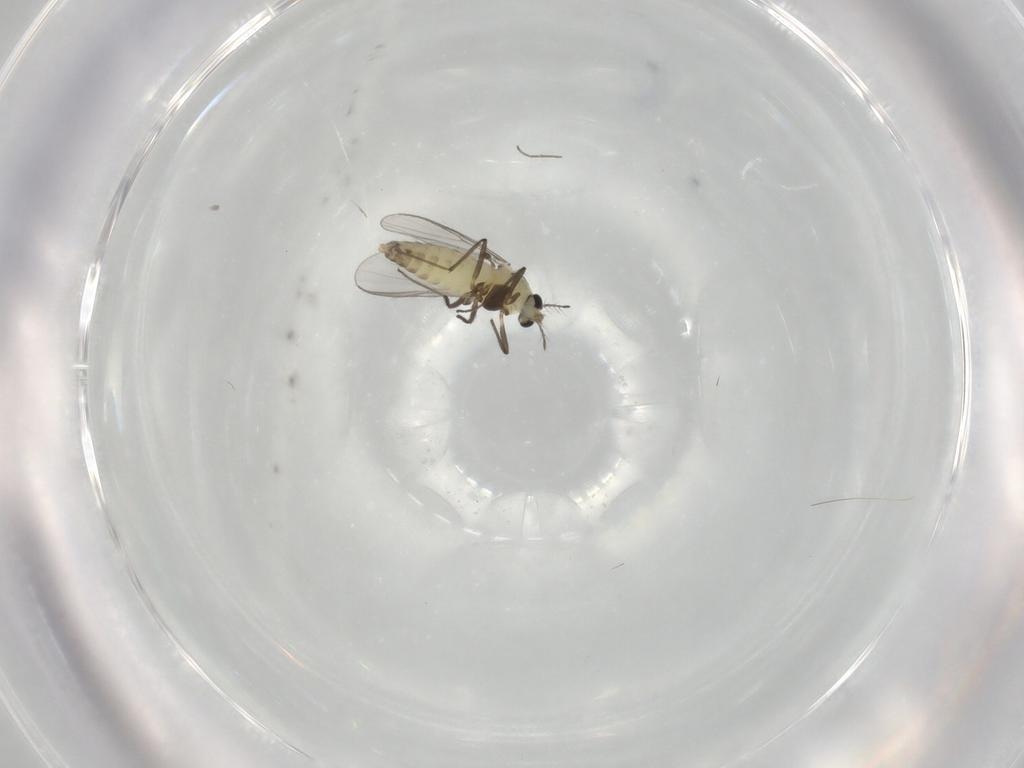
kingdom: Animalia
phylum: Arthropoda
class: Insecta
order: Diptera
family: Chironomidae
